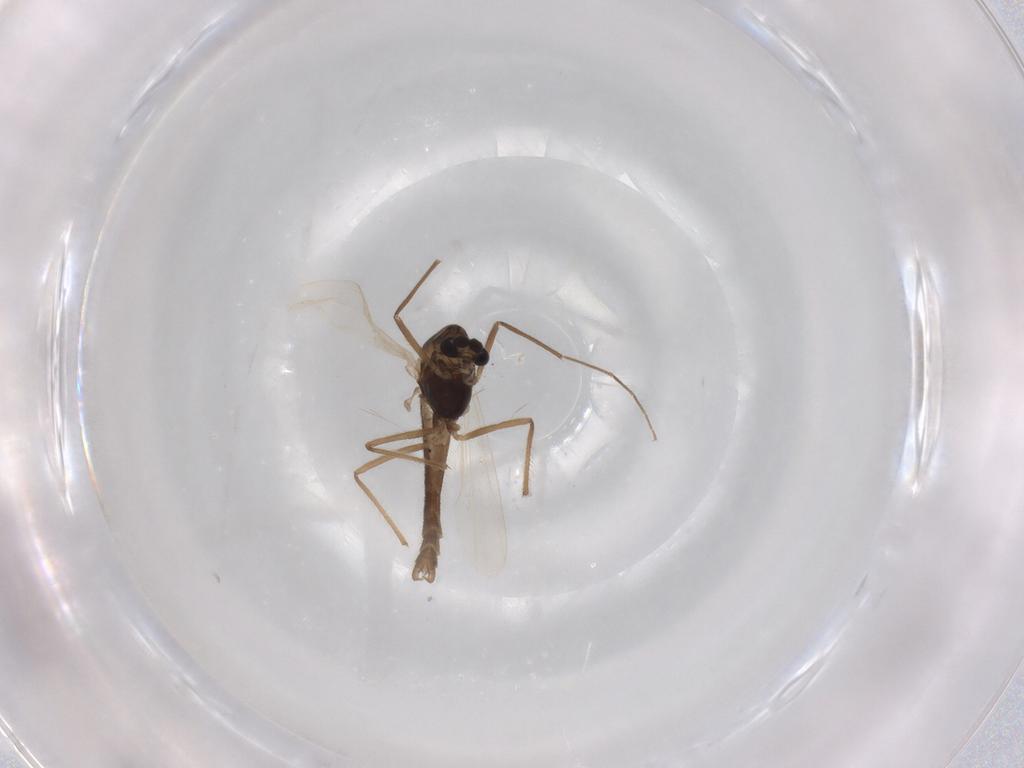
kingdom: Animalia
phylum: Arthropoda
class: Insecta
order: Diptera
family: Chironomidae
